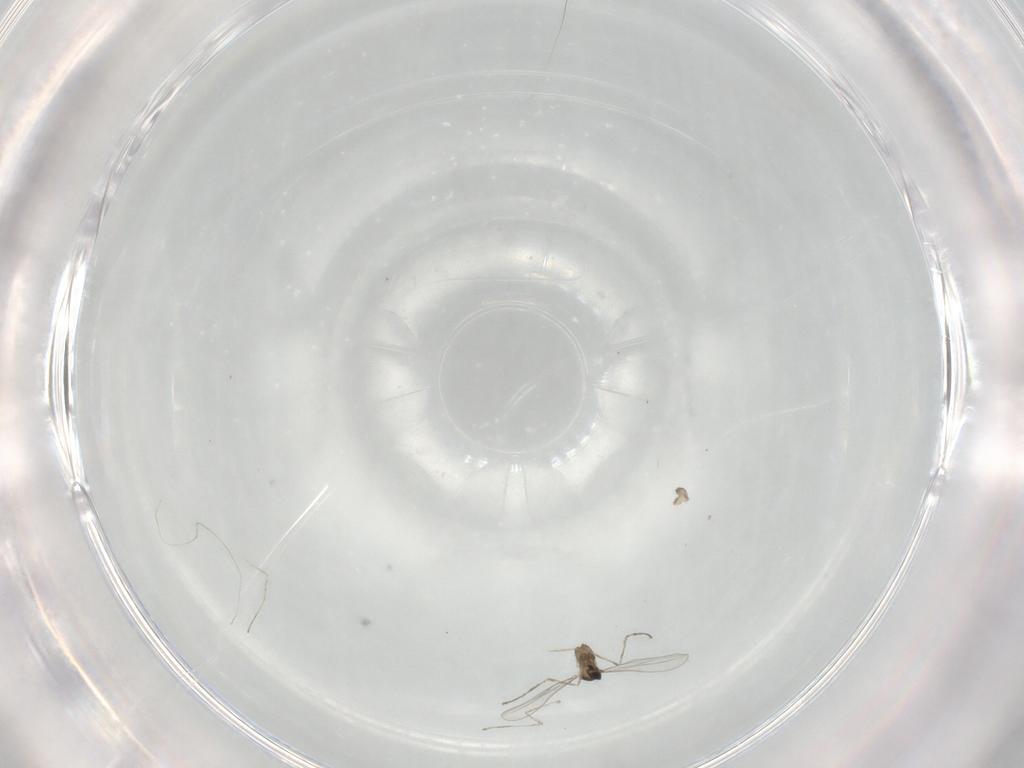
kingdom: Animalia
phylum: Arthropoda
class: Insecta
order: Diptera
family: Cecidomyiidae
